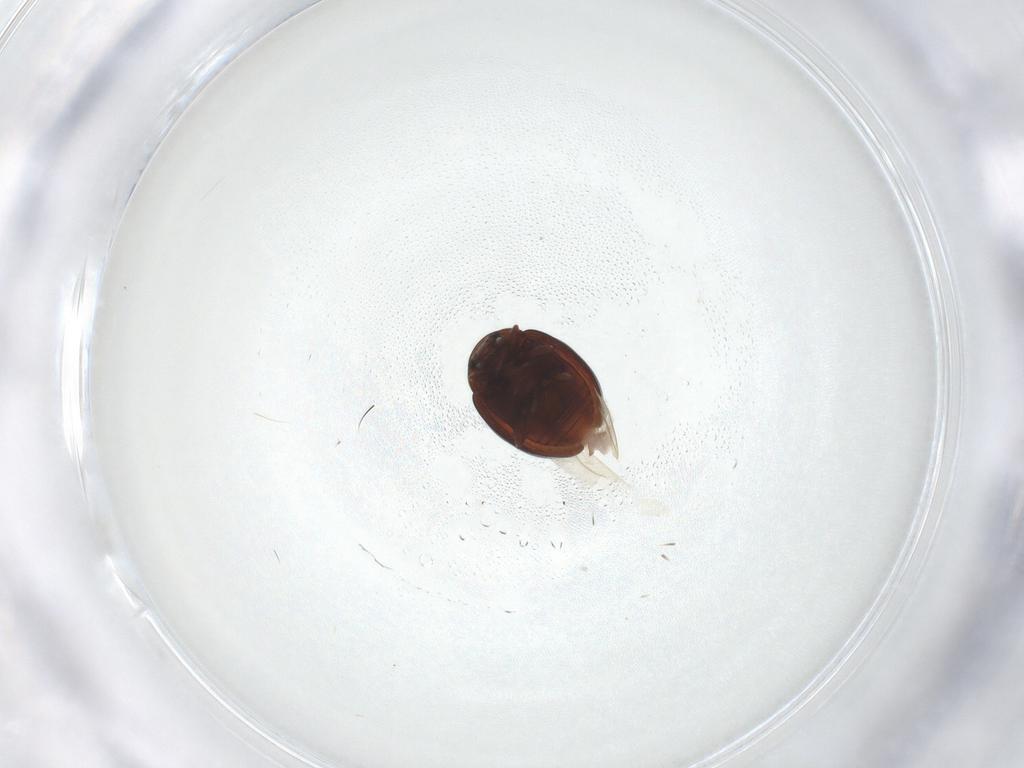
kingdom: Animalia
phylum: Arthropoda
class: Insecta
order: Coleoptera
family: Coccinellidae
